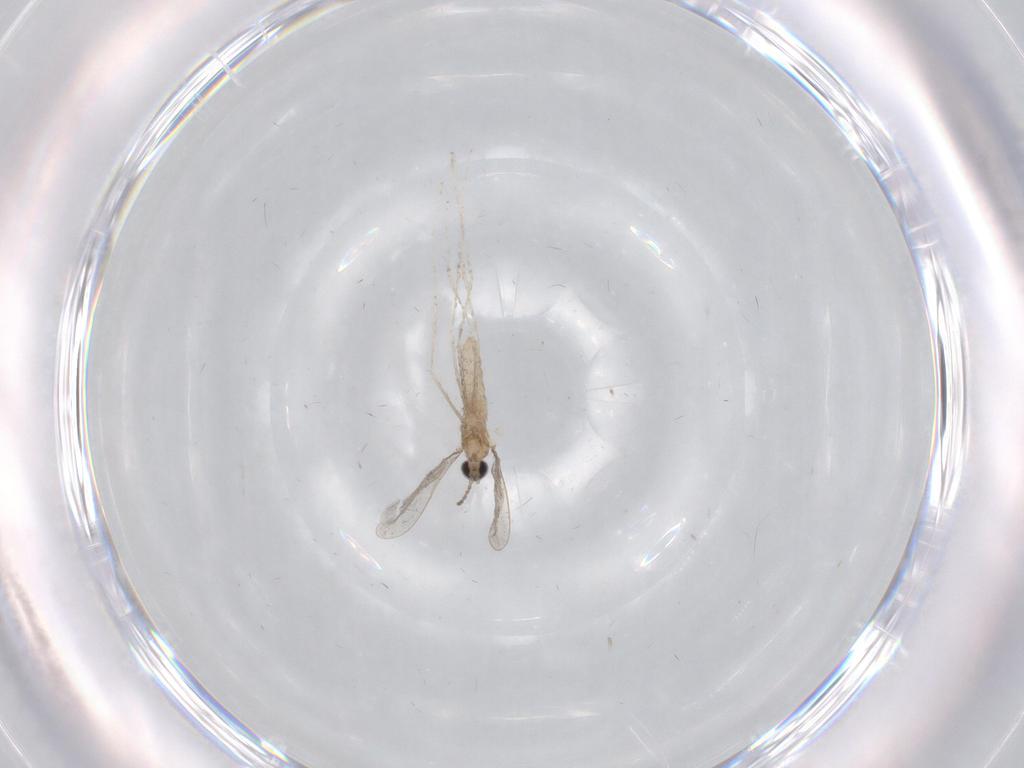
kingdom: Animalia
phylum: Arthropoda
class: Insecta
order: Diptera
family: Cecidomyiidae
